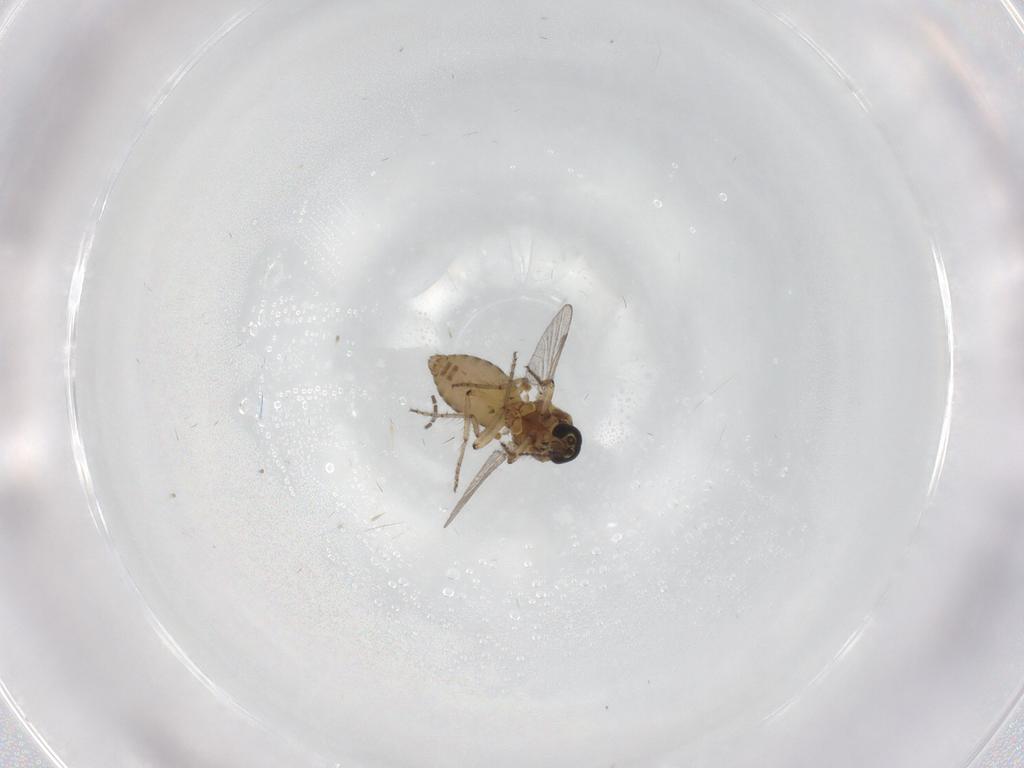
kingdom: Animalia
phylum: Arthropoda
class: Insecta
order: Diptera
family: Ceratopogonidae
